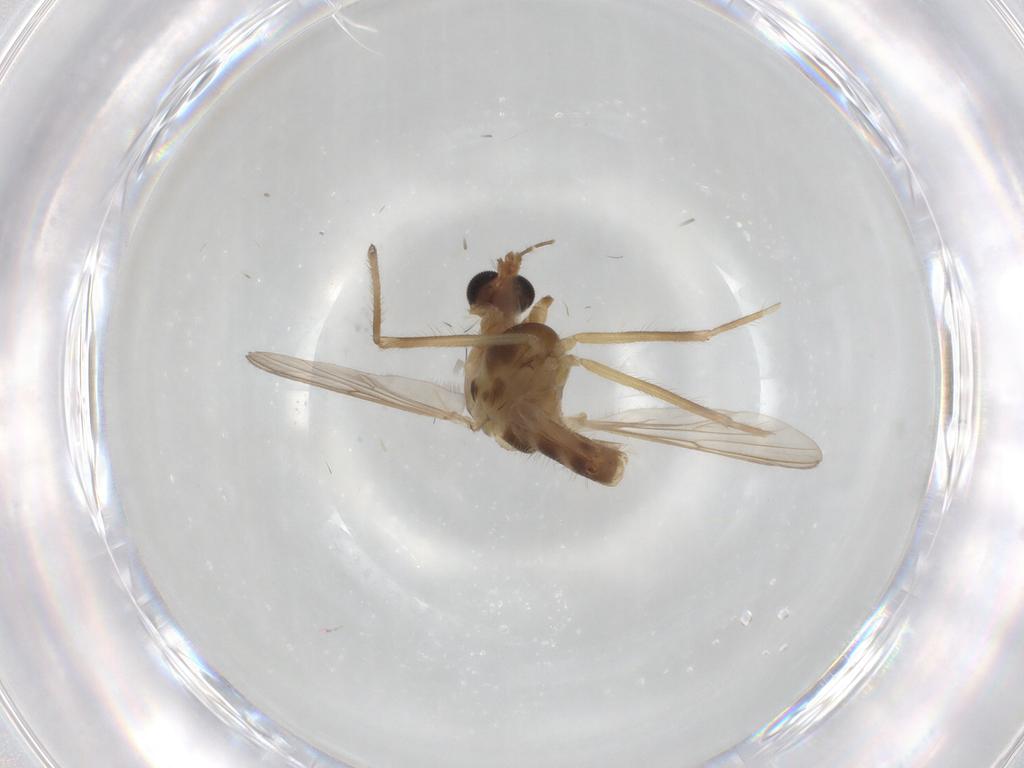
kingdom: Animalia
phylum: Arthropoda
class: Insecta
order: Diptera
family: Chironomidae
